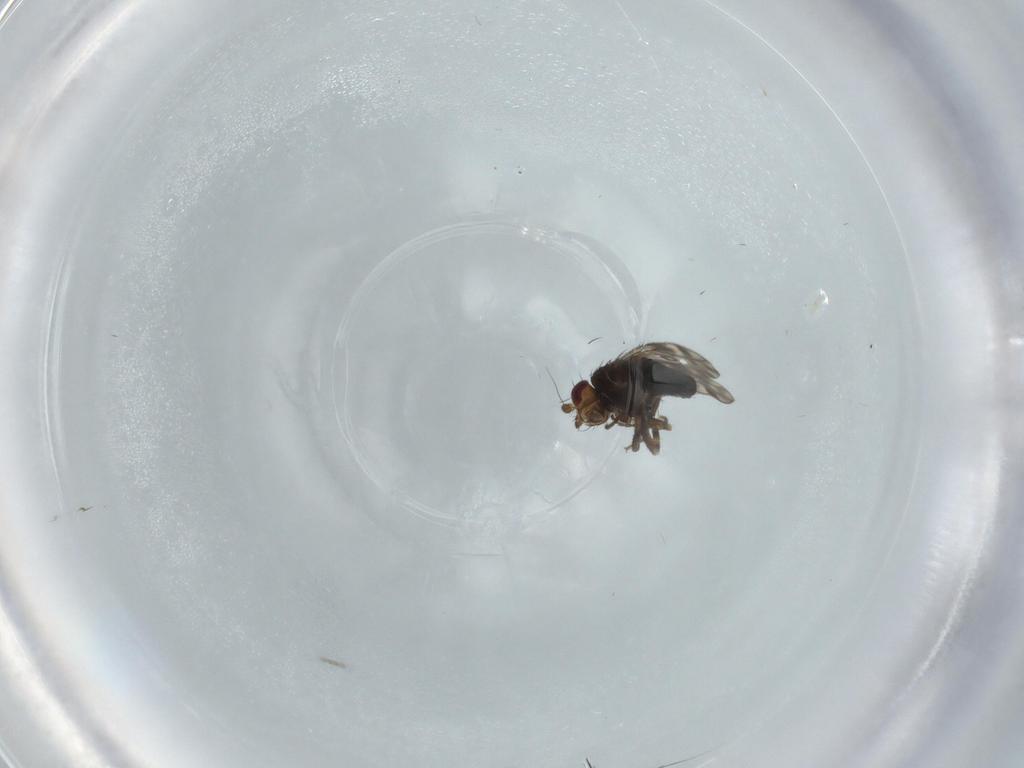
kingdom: Animalia
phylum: Arthropoda
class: Insecta
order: Diptera
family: Sphaeroceridae
